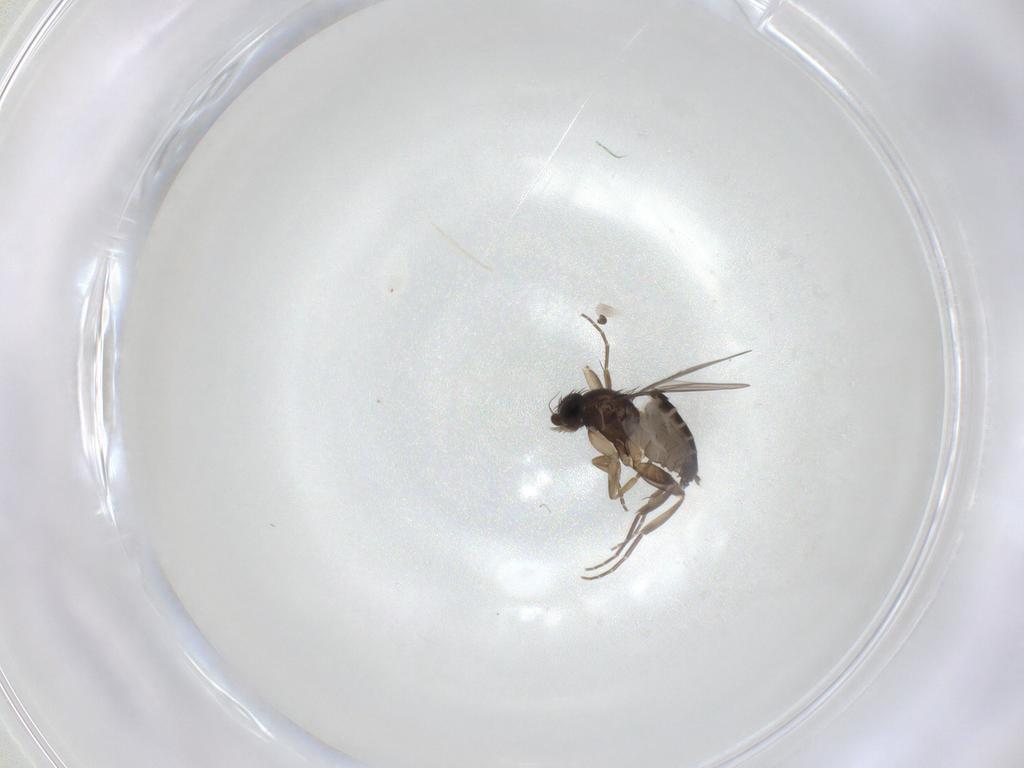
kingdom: Animalia
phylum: Arthropoda
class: Insecta
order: Diptera
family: Phoridae
